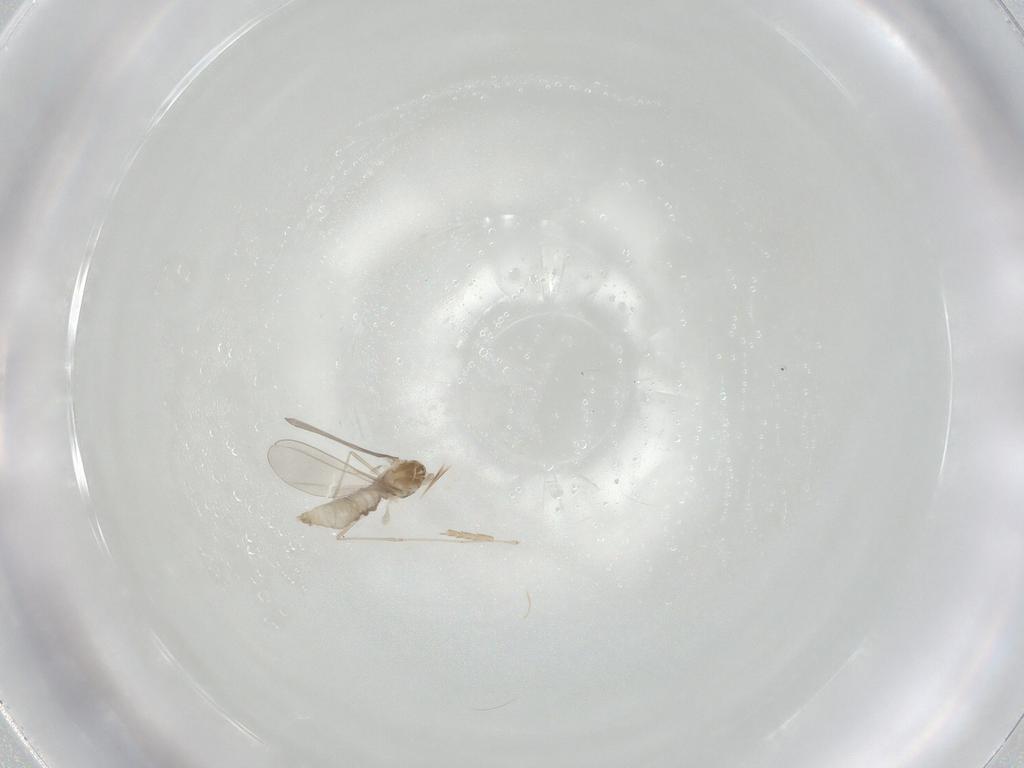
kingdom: Animalia
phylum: Arthropoda
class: Insecta
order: Diptera
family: Cecidomyiidae
